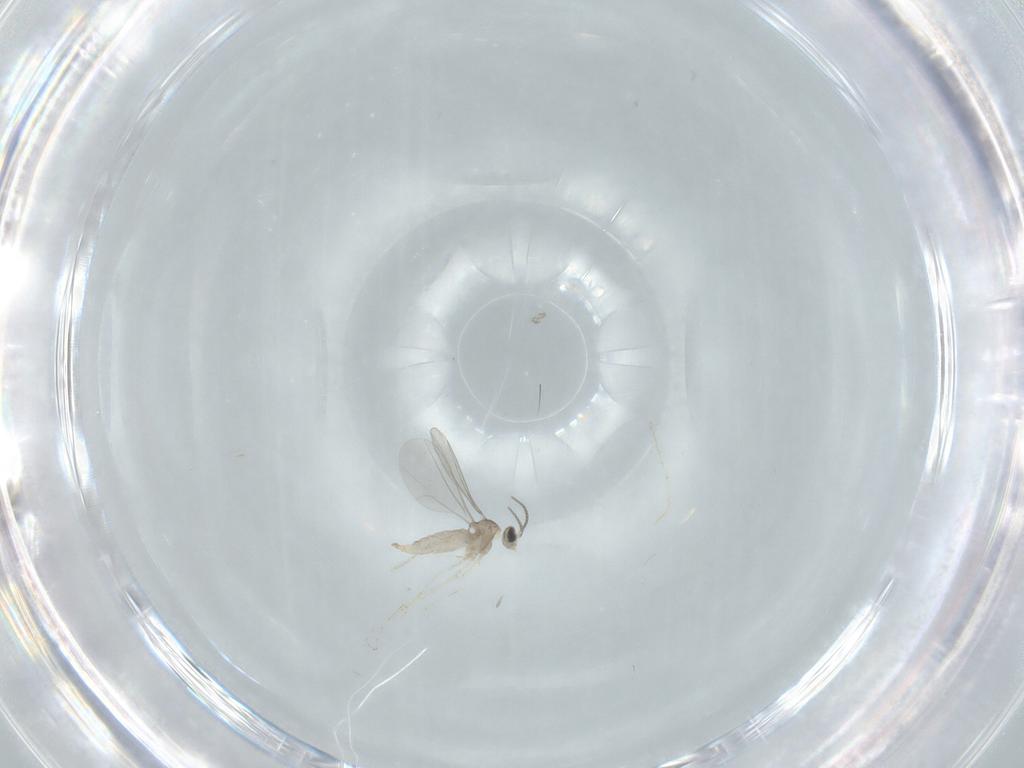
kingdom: Animalia
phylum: Arthropoda
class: Insecta
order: Diptera
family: Cecidomyiidae
